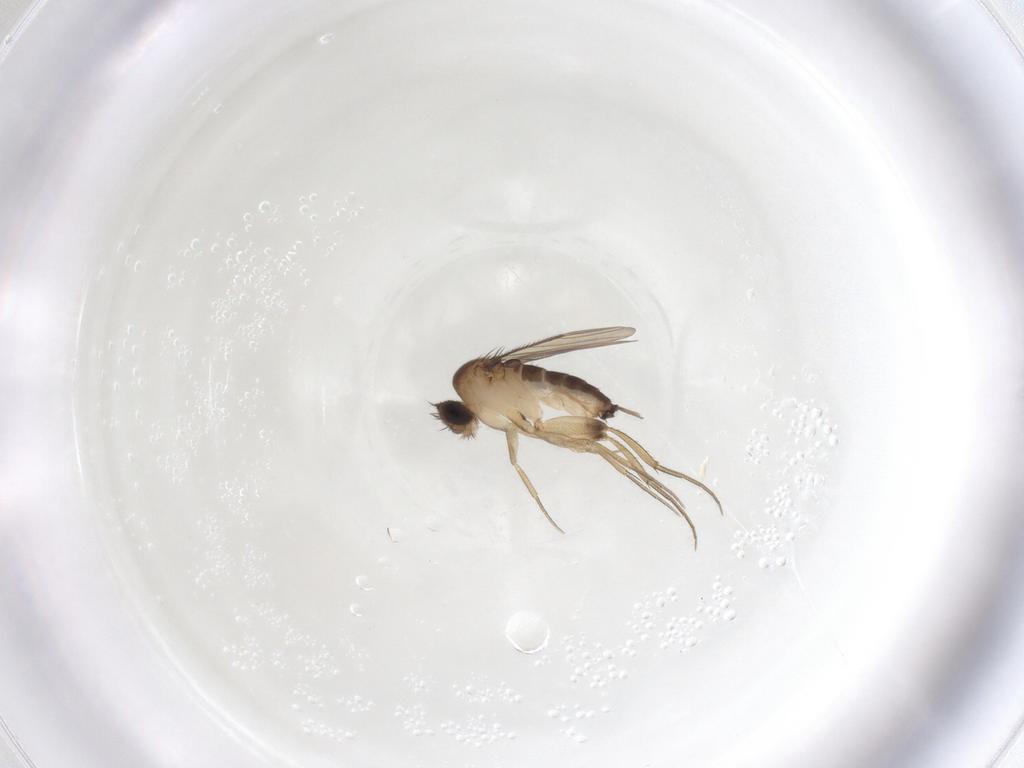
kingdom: Animalia
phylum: Arthropoda
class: Insecta
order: Diptera
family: Phoridae
